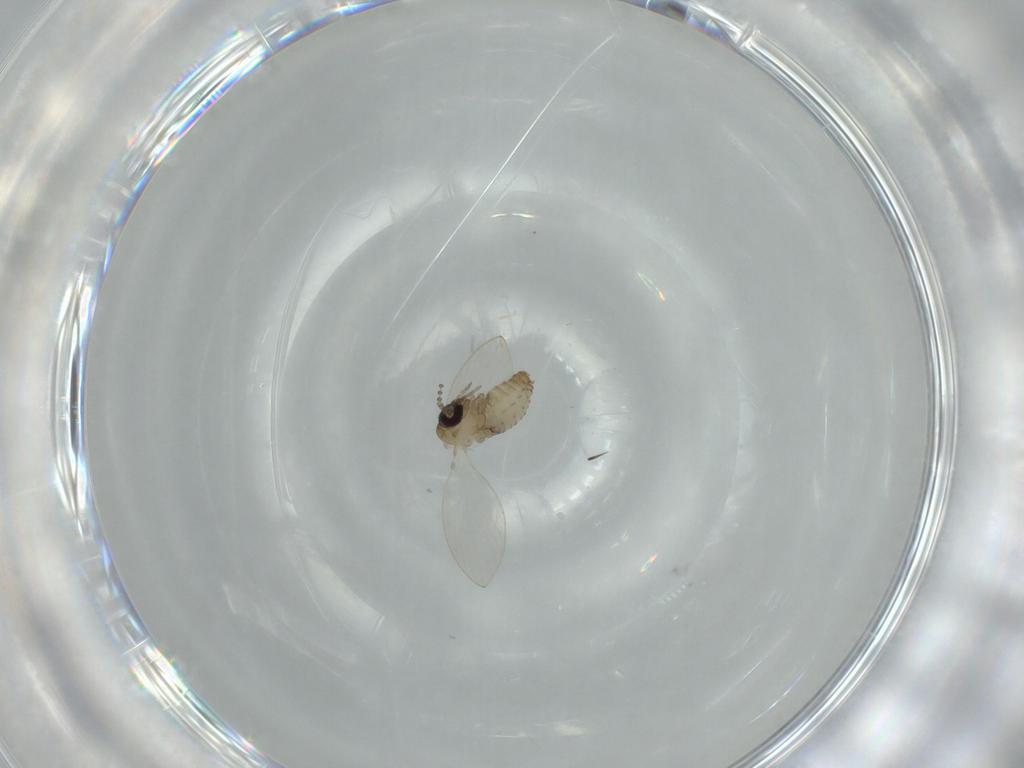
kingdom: Animalia
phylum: Arthropoda
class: Insecta
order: Diptera
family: Psychodidae
